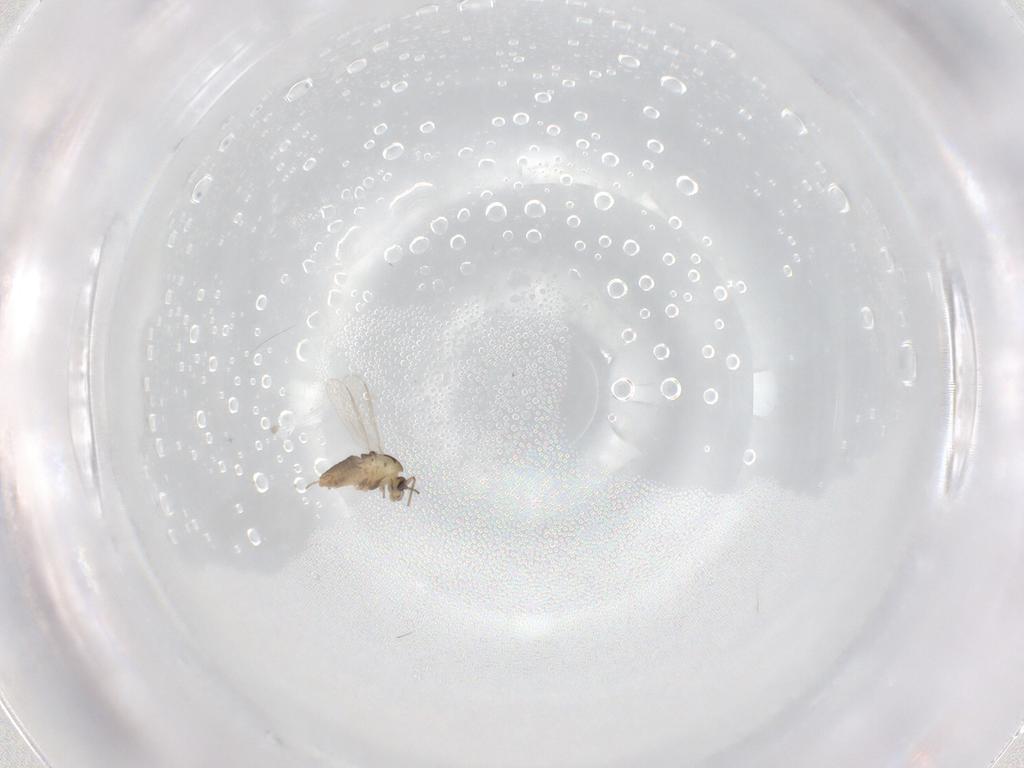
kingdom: Animalia
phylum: Arthropoda
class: Insecta
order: Diptera
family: Chironomidae
